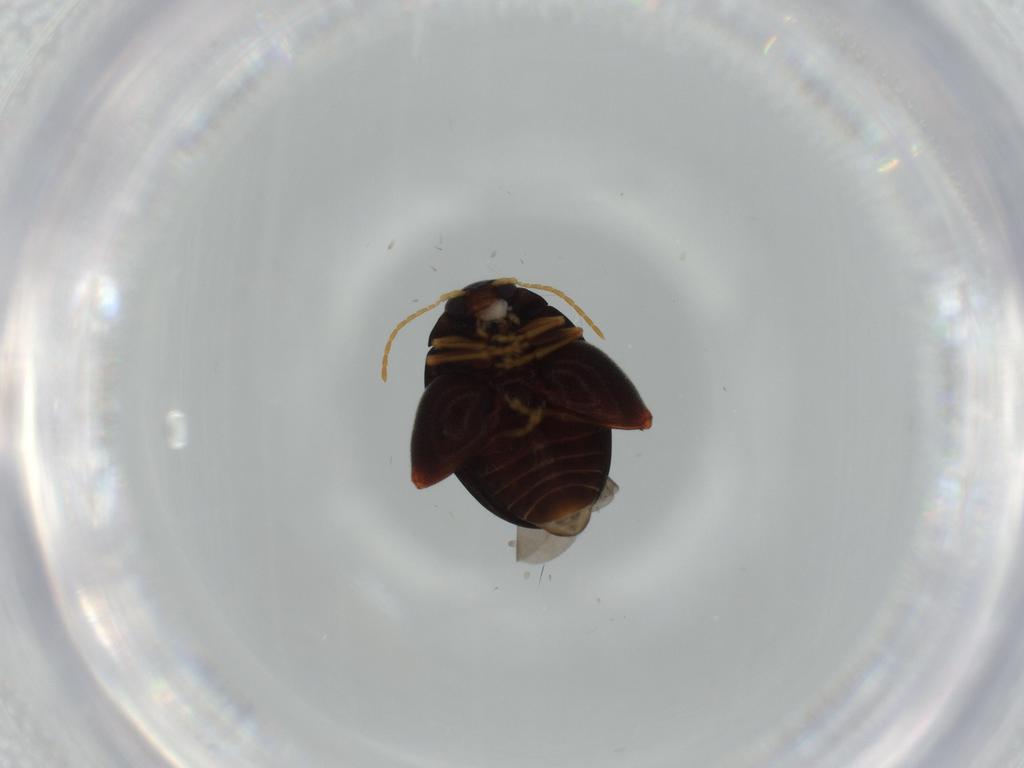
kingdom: Animalia
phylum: Arthropoda
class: Insecta
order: Coleoptera
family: Chrysomelidae
